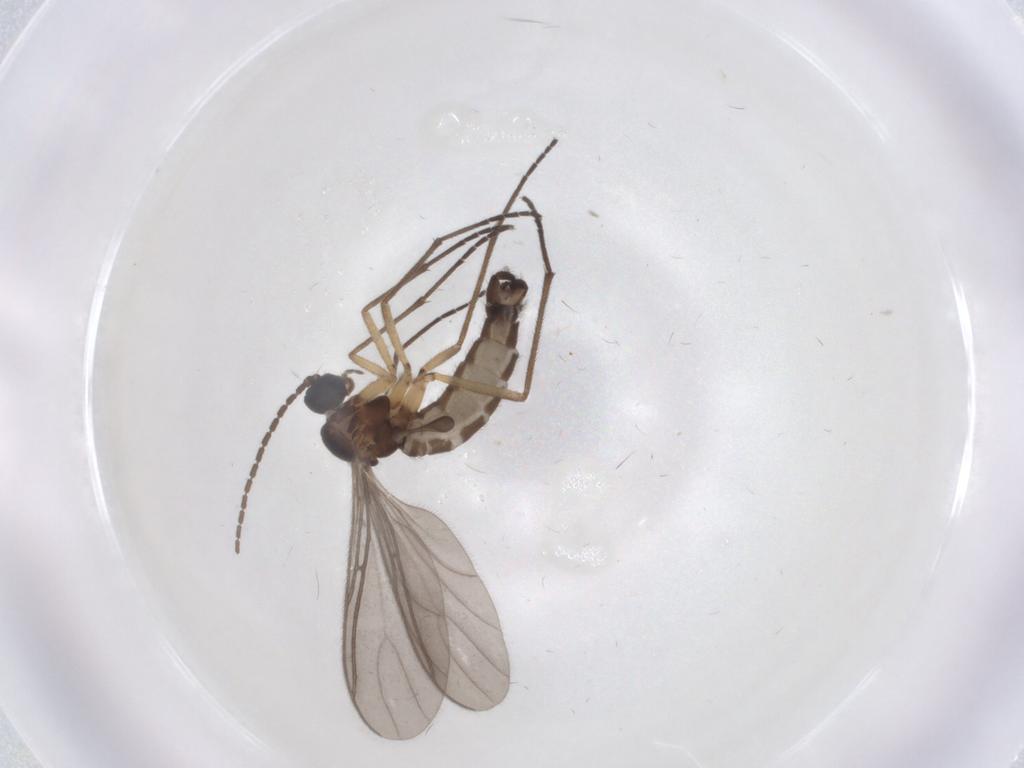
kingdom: Animalia
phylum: Arthropoda
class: Insecta
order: Diptera
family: Sciaridae
